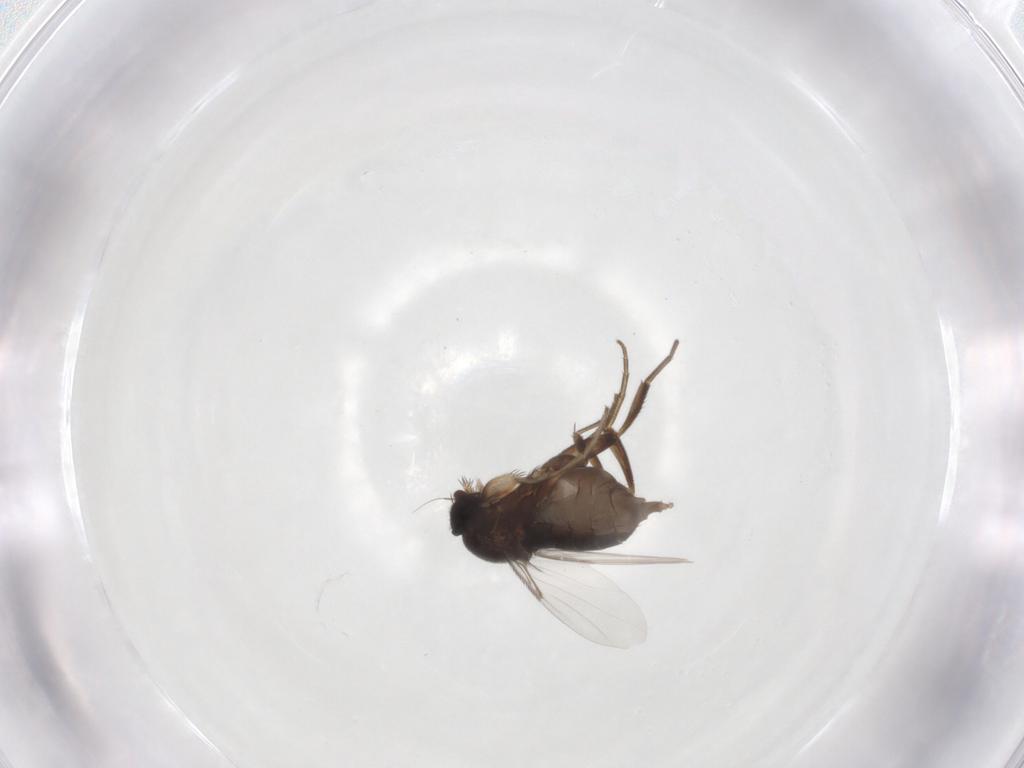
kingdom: Animalia
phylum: Arthropoda
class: Insecta
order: Diptera
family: Phoridae
